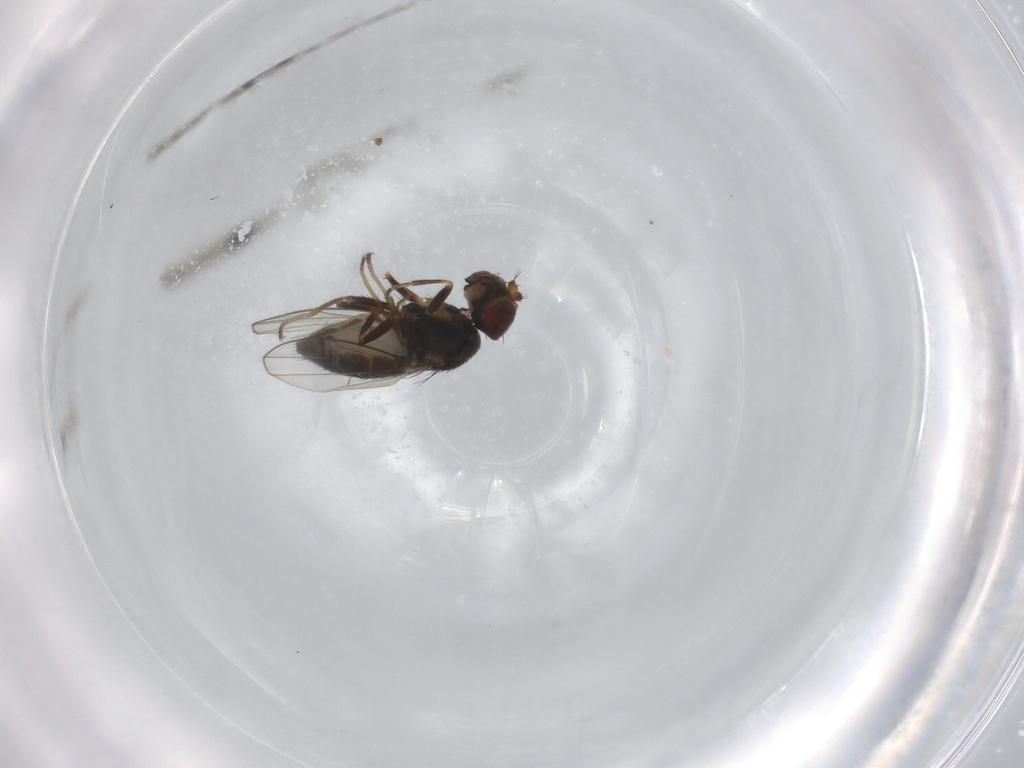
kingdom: Animalia
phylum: Arthropoda
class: Insecta
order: Diptera
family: Ephydridae
